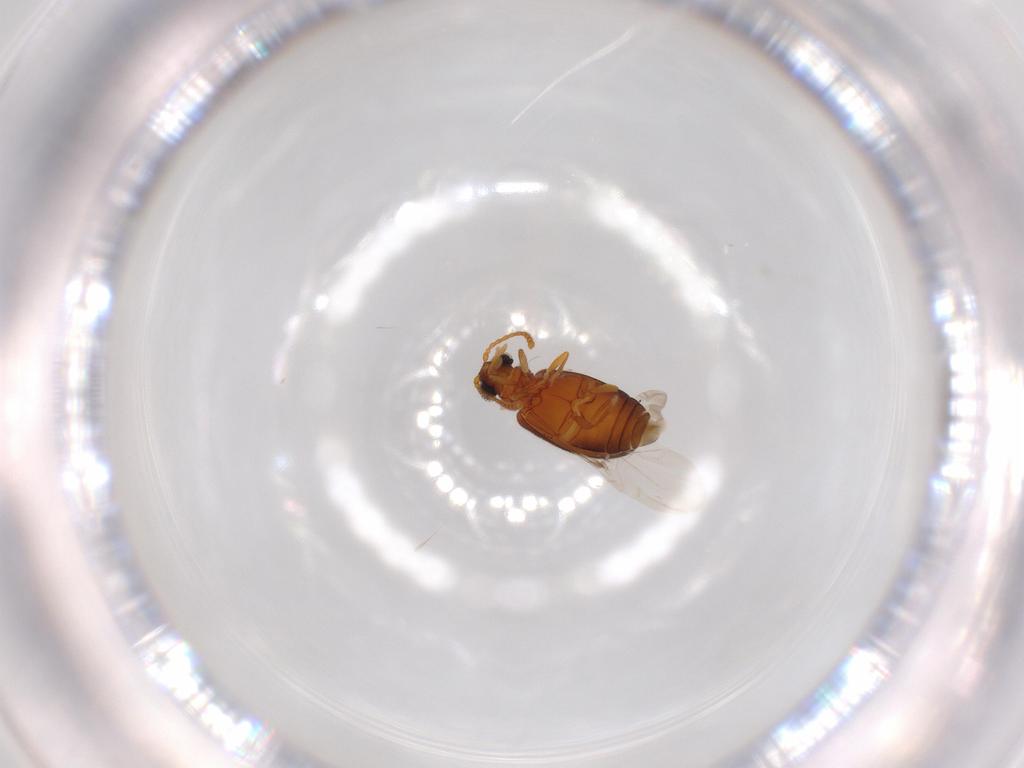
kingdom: Animalia
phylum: Arthropoda
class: Insecta
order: Coleoptera
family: Aderidae
